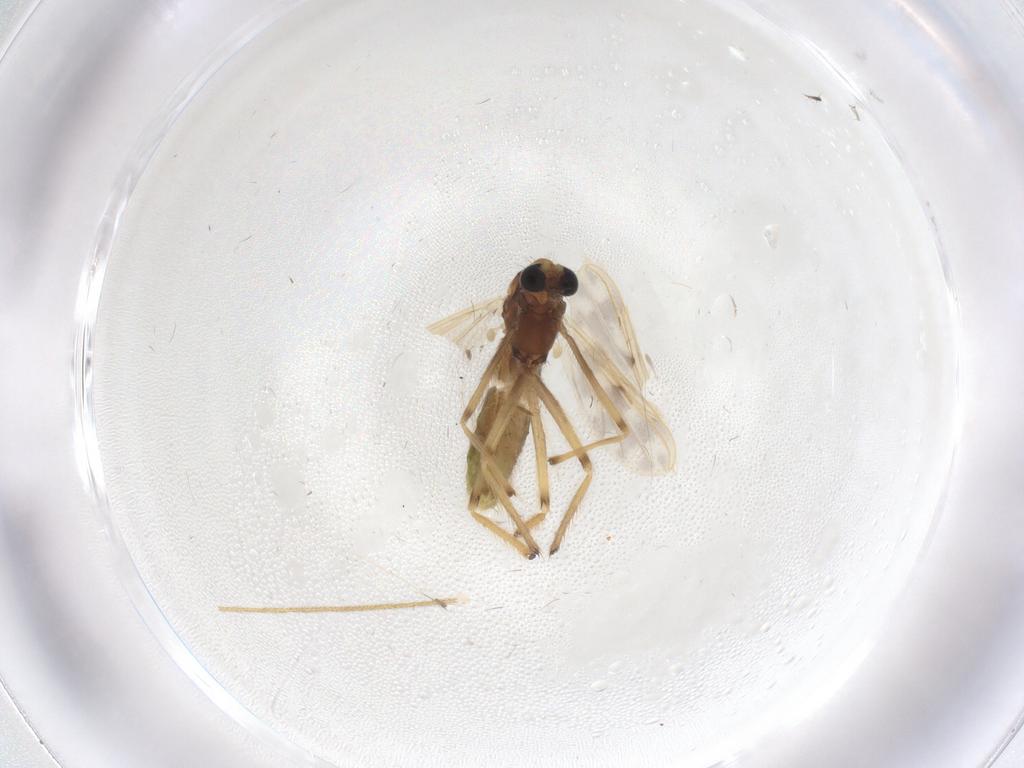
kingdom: Animalia
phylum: Arthropoda
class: Insecta
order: Diptera
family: Chironomidae
